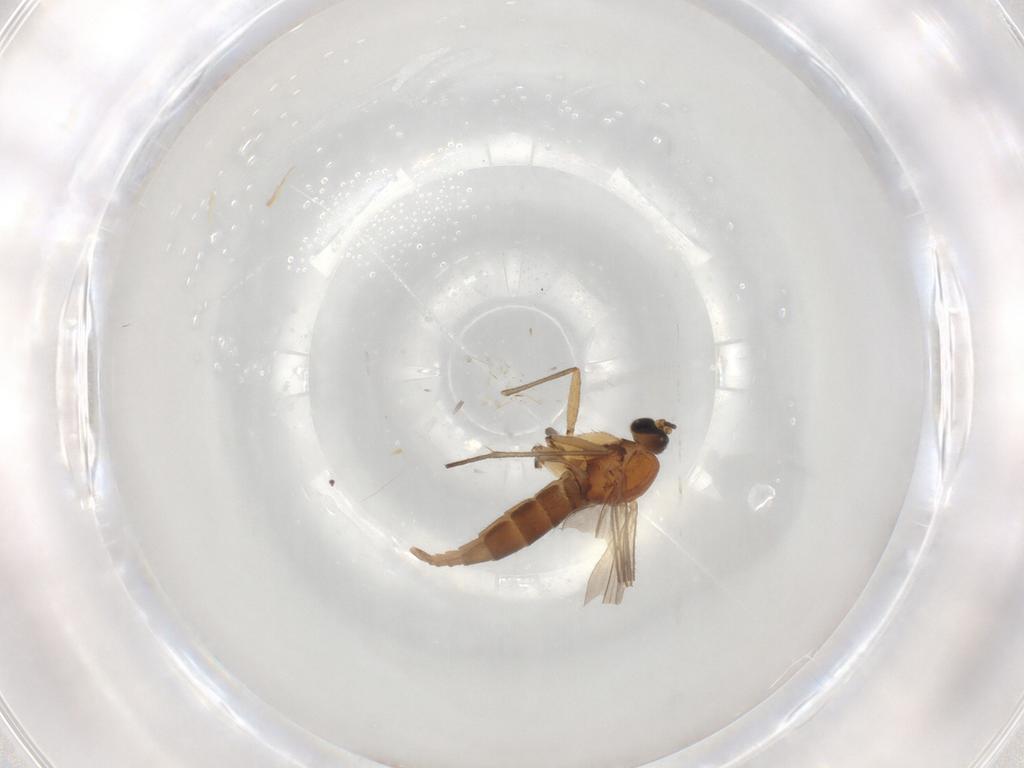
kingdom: Animalia
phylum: Arthropoda
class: Insecta
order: Diptera
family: Sciaridae
